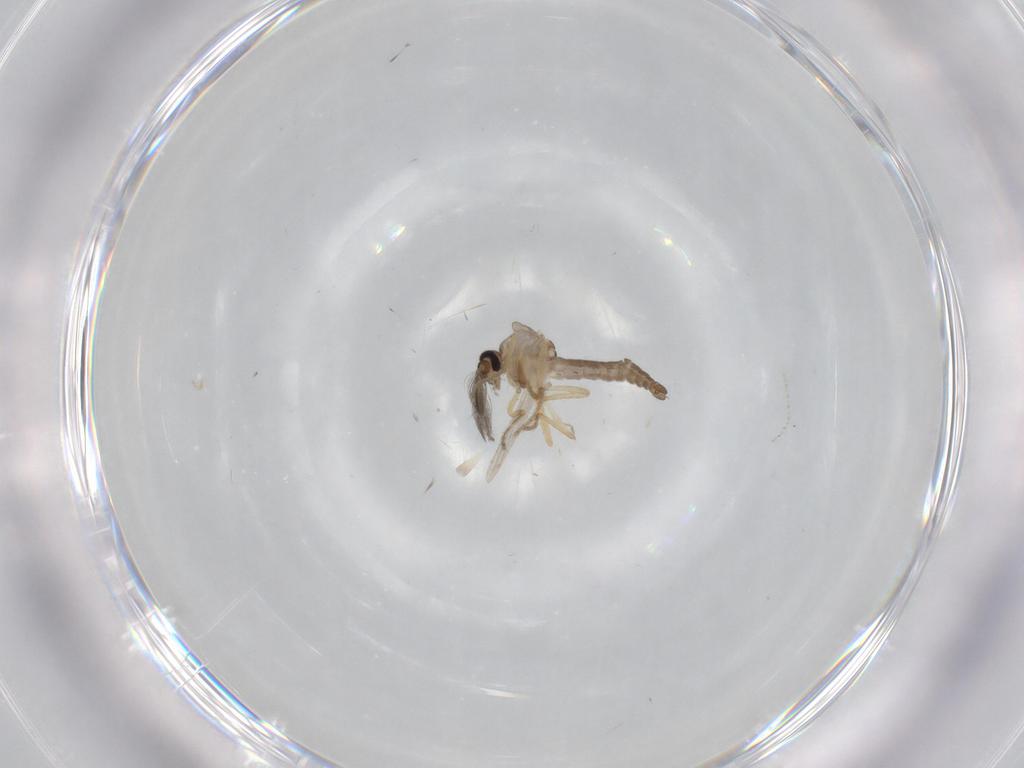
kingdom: Animalia
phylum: Arthropoda
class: Insecta
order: Diptera
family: Ceratopogonidae
